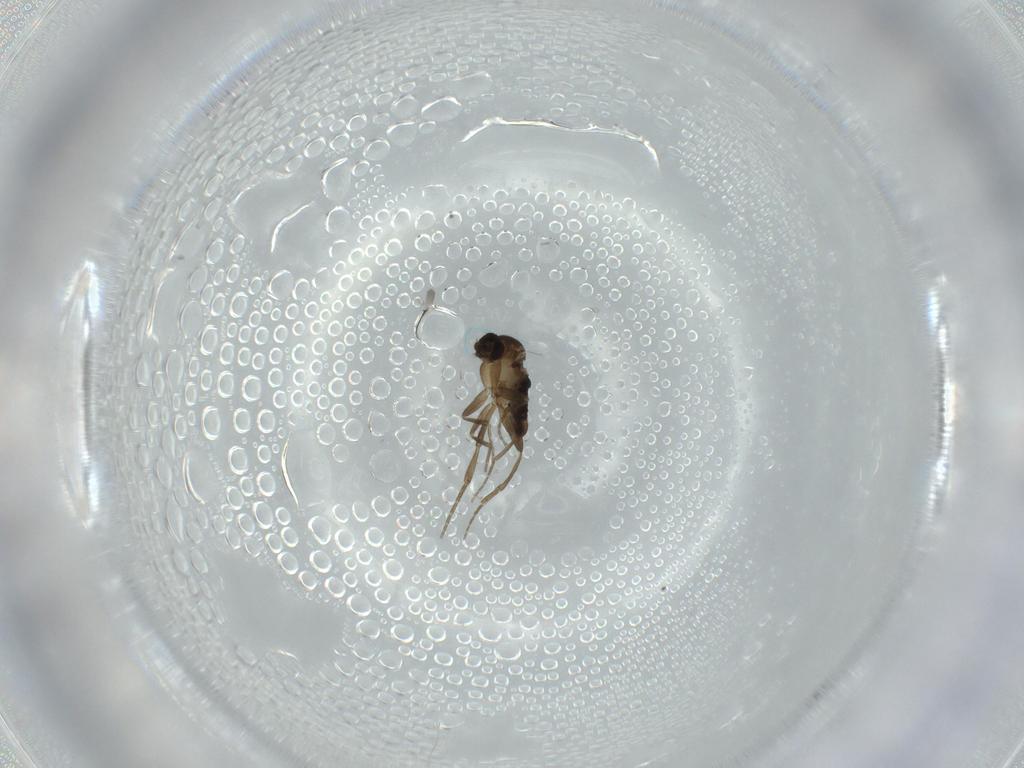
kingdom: Animalia
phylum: Arthropoda
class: Insecta
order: Diptera
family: Phoridae
